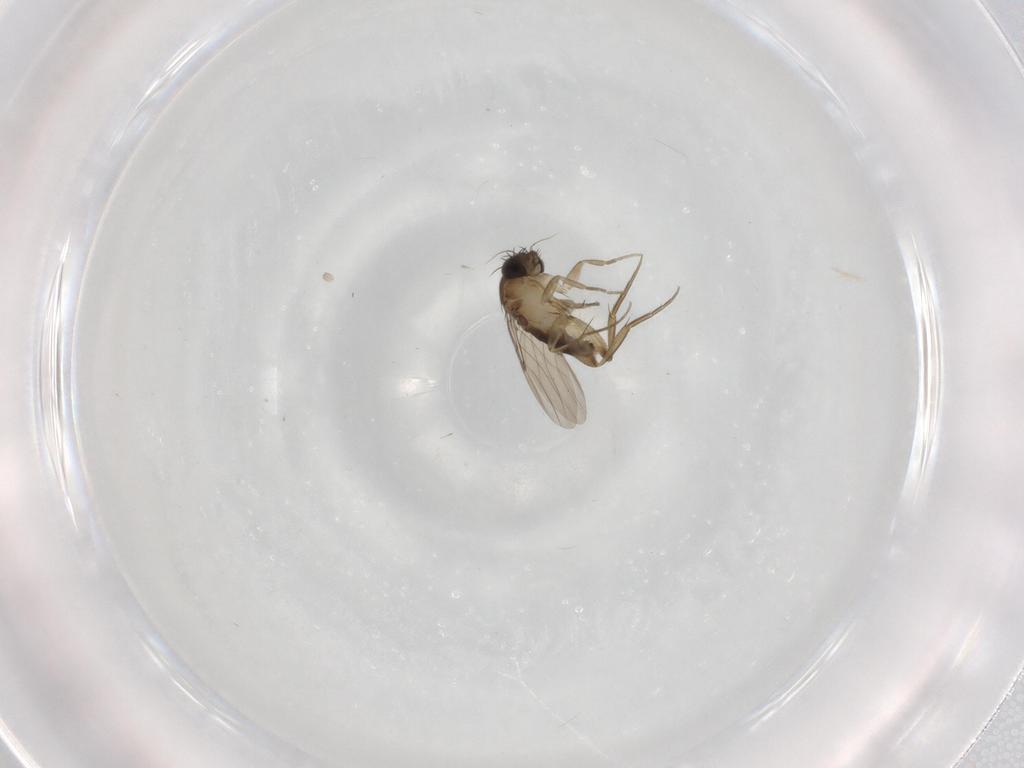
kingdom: Animalia
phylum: Arthropoda
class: Insecta
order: Diptera
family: Phoridae
